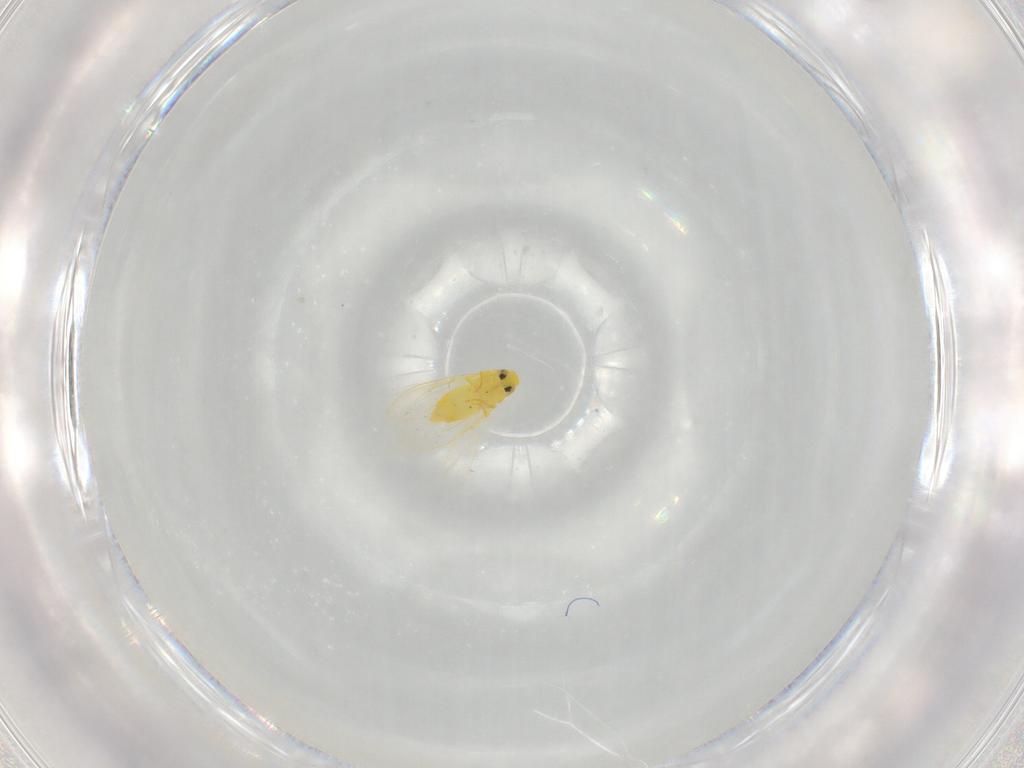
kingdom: Animalia
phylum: Arthropoda
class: Insecta
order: Hemiptera
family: Aleyrodidae
